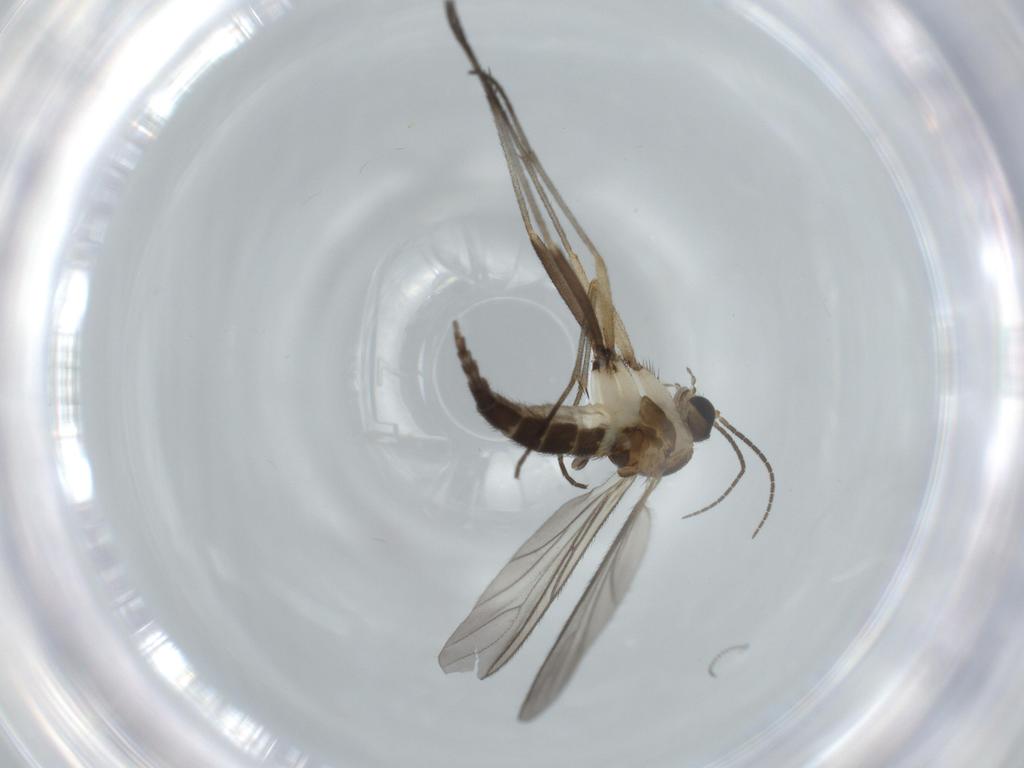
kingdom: Animalia
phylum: Arthropoda
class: Insecta
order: Diptera
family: Sciaridae
